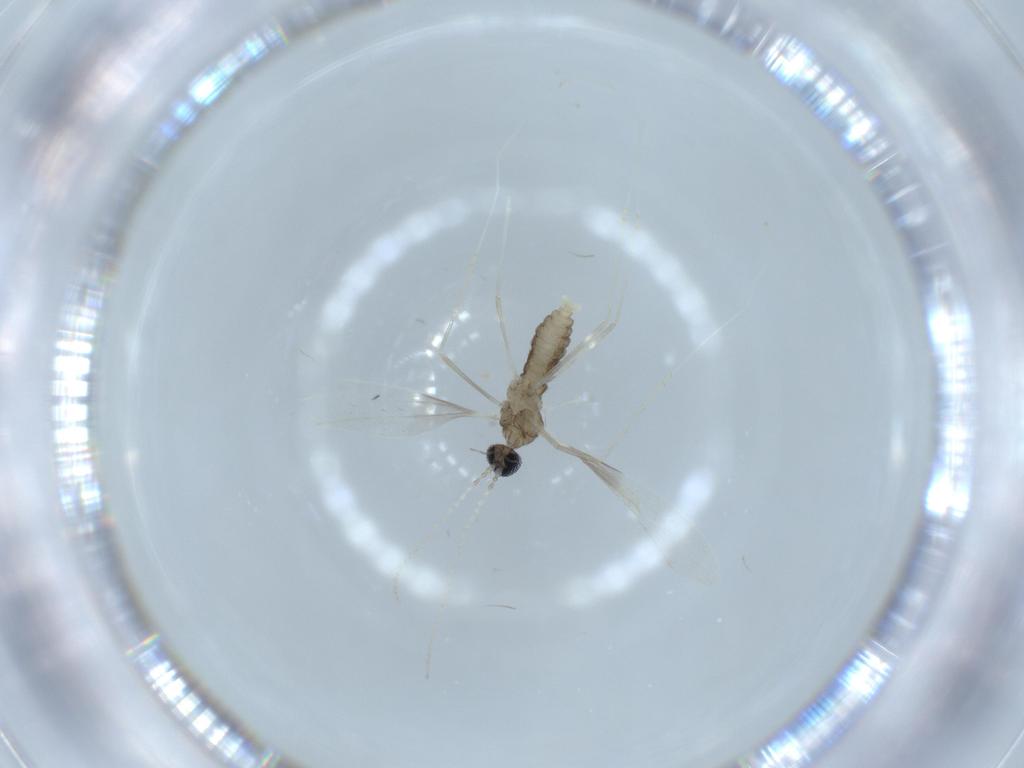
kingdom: Animalia
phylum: Arthropoda
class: Insecta
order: Diptera
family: Cecidomyiidae
